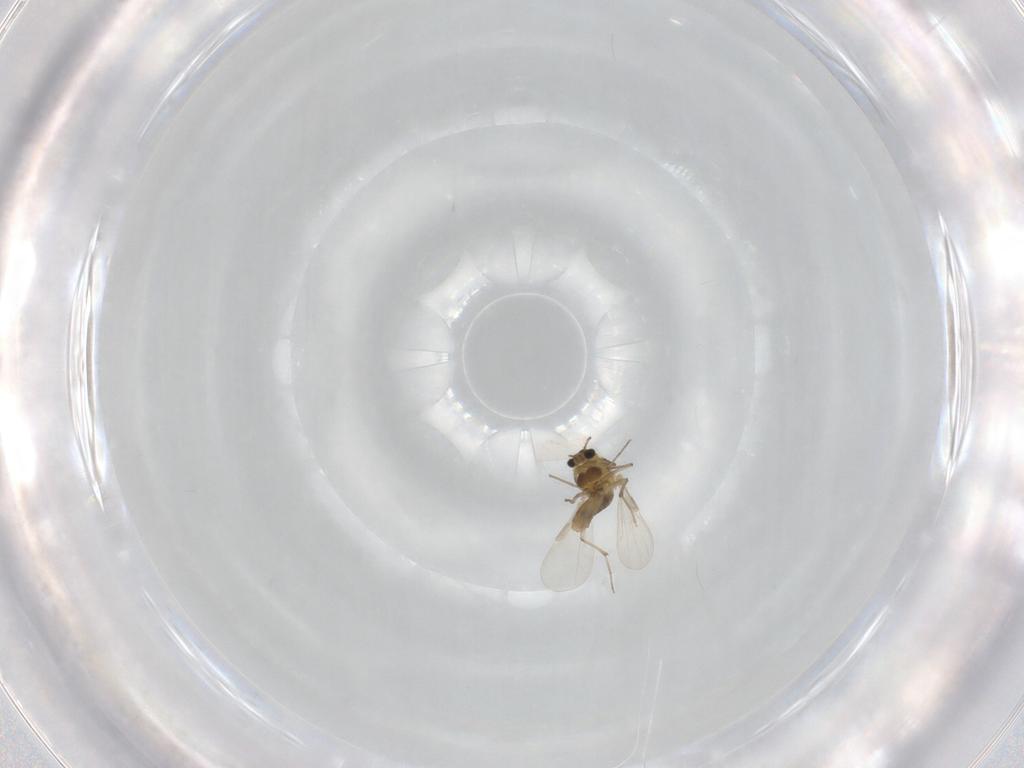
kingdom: Animalia
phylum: Arthropoda
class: Insecta
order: Diptera
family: Chironomidae
